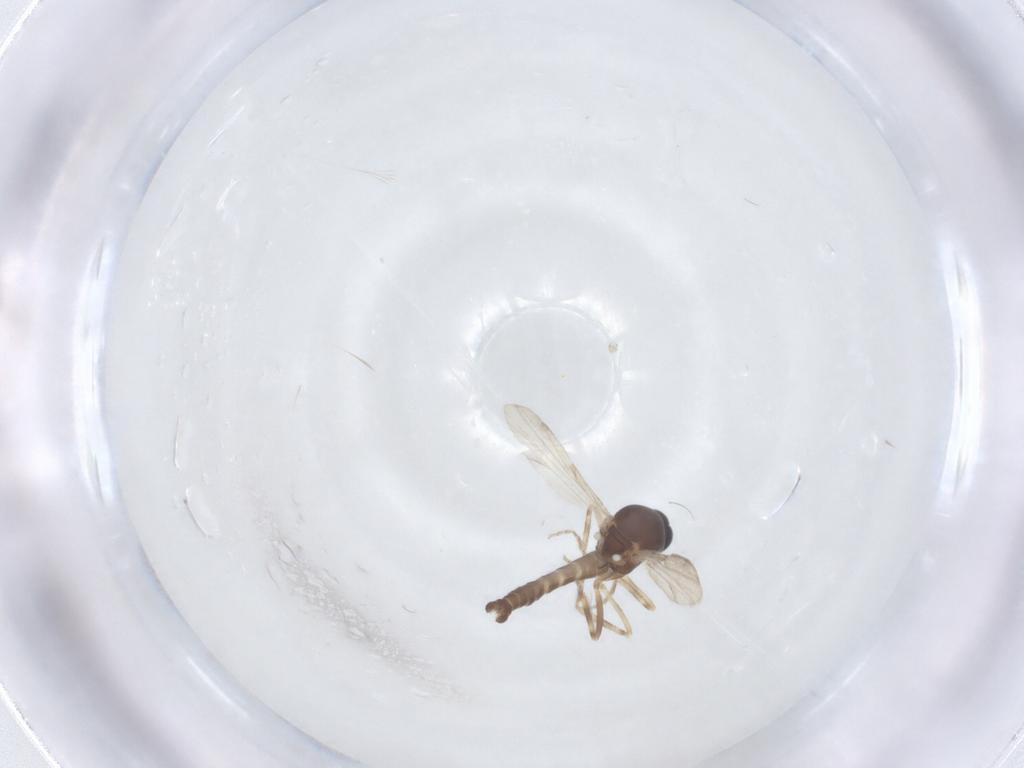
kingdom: Animalia
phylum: Arthropoda
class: Insecta
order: Diptera
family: Ceratopogonidae
